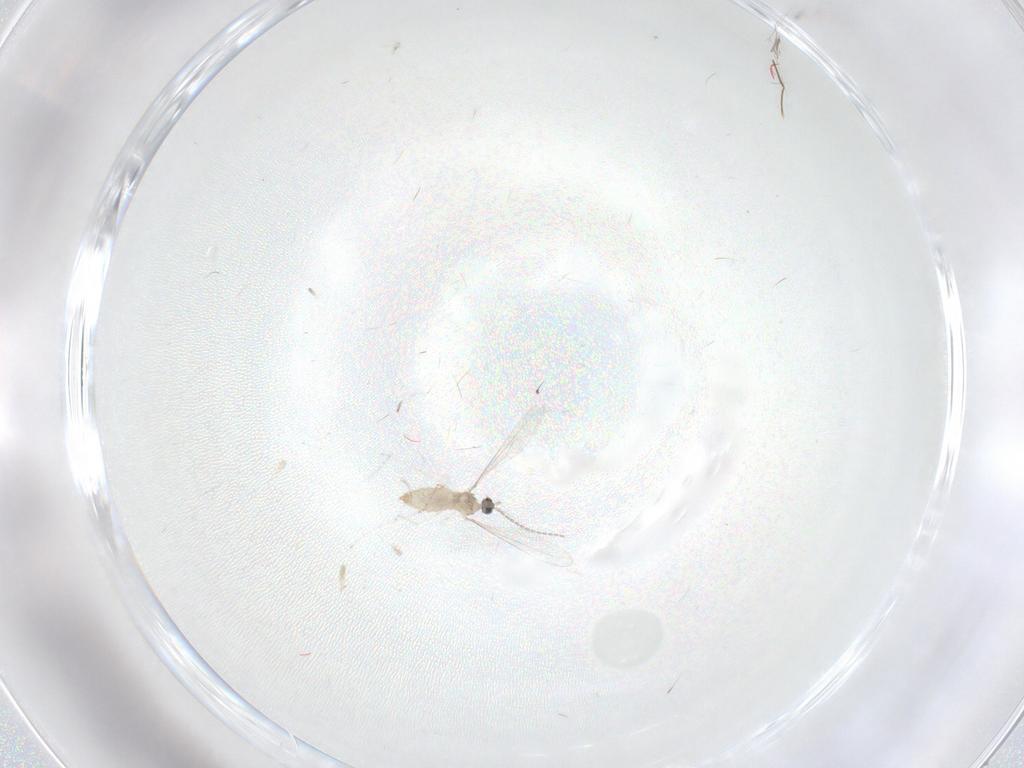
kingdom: Animalia
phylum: Arthropoda
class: Insecta
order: Diptera
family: Cecidomyiidae
